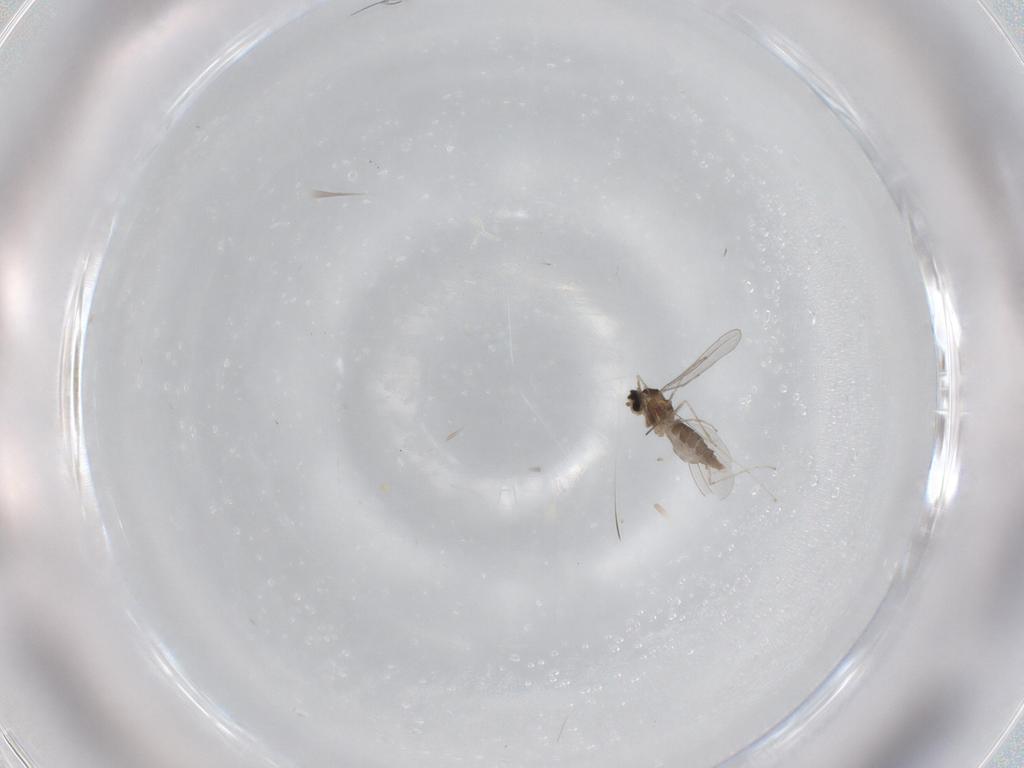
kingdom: Animalia
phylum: Arthropoda
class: Insecta
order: Diptera
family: Cecidomyiidae
